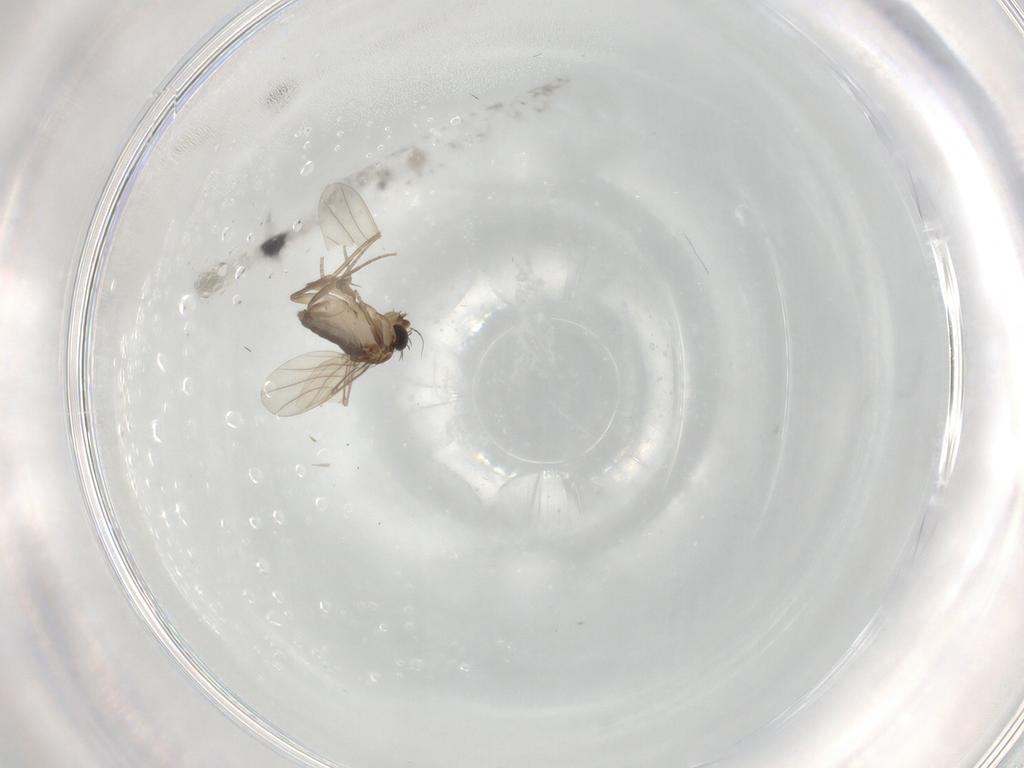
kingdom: Animalia
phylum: Arthropoda
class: Insecta
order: Diptera
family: Phoridae
